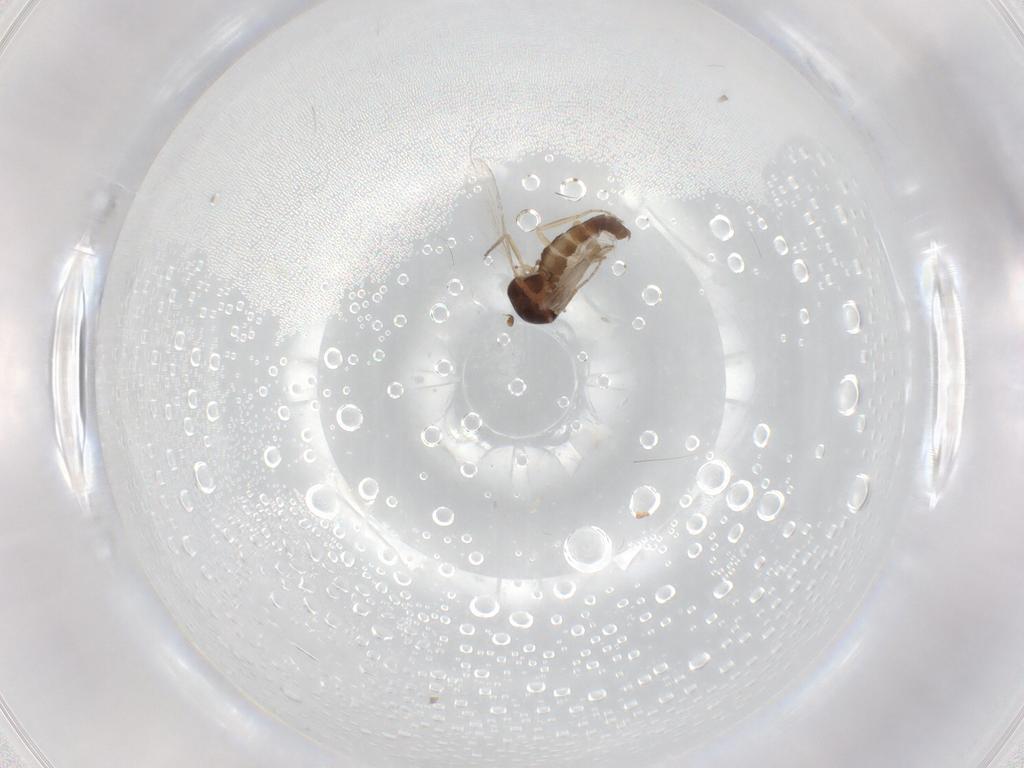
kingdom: Animalia
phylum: Arthropoda
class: Insecta
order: Diptera
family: Ceratopogonidae
